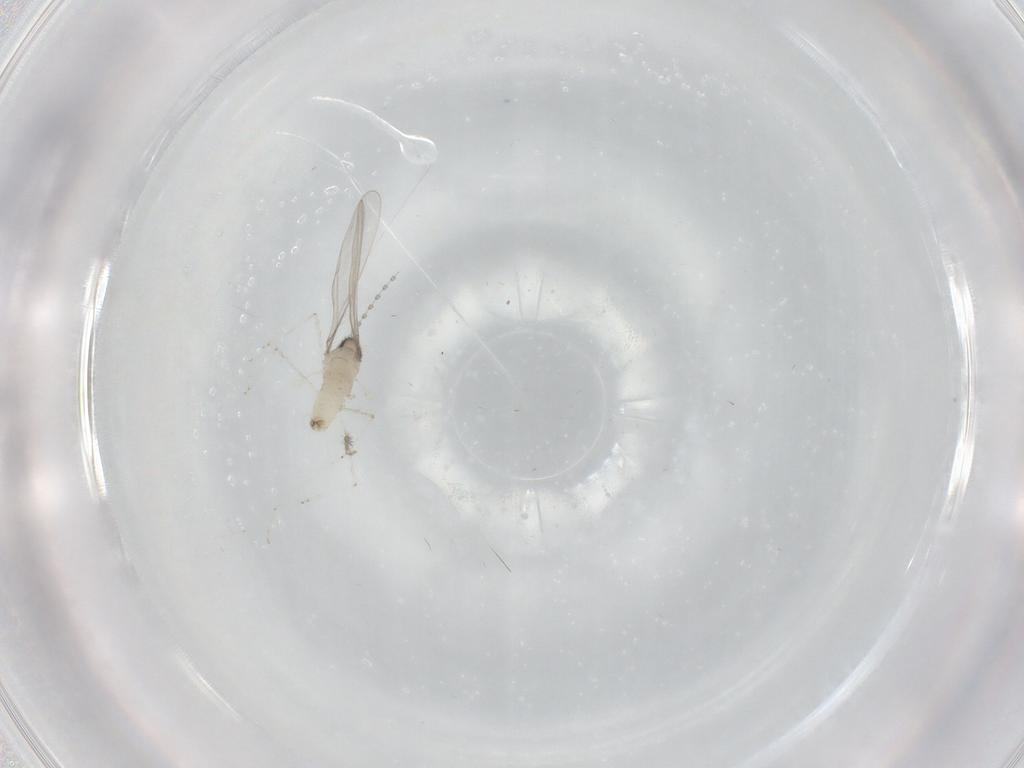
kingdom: Animalia
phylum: Arthropoda
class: Insecta
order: Diptera
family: Cecidomyiidae
